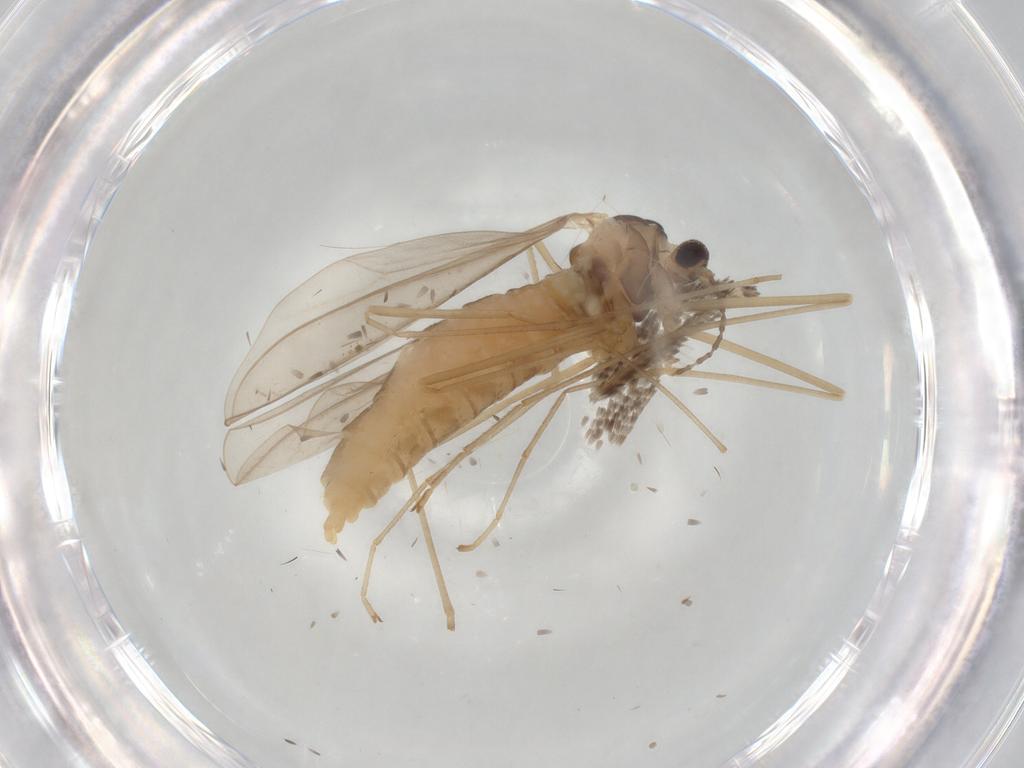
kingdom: Animalia
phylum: Arthropoda
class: Insecta
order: Diptera
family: Cecidomyiidae
